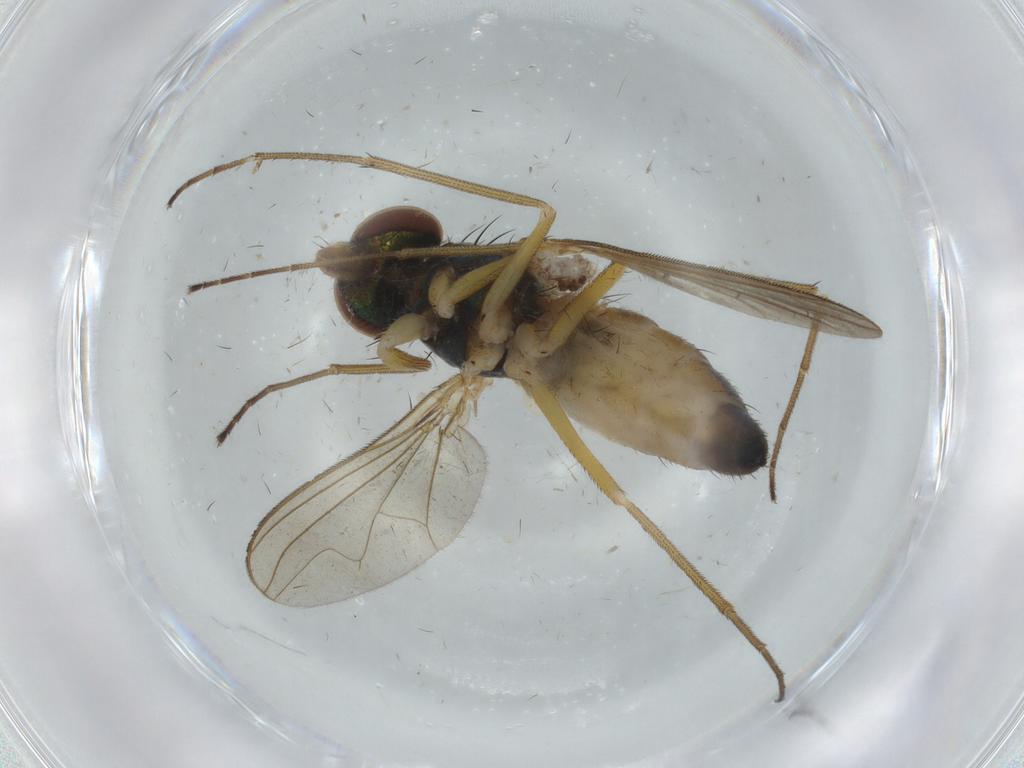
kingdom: Animalia
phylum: Arthropoda
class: Insecta
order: Diptera
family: Dolichopodidae
